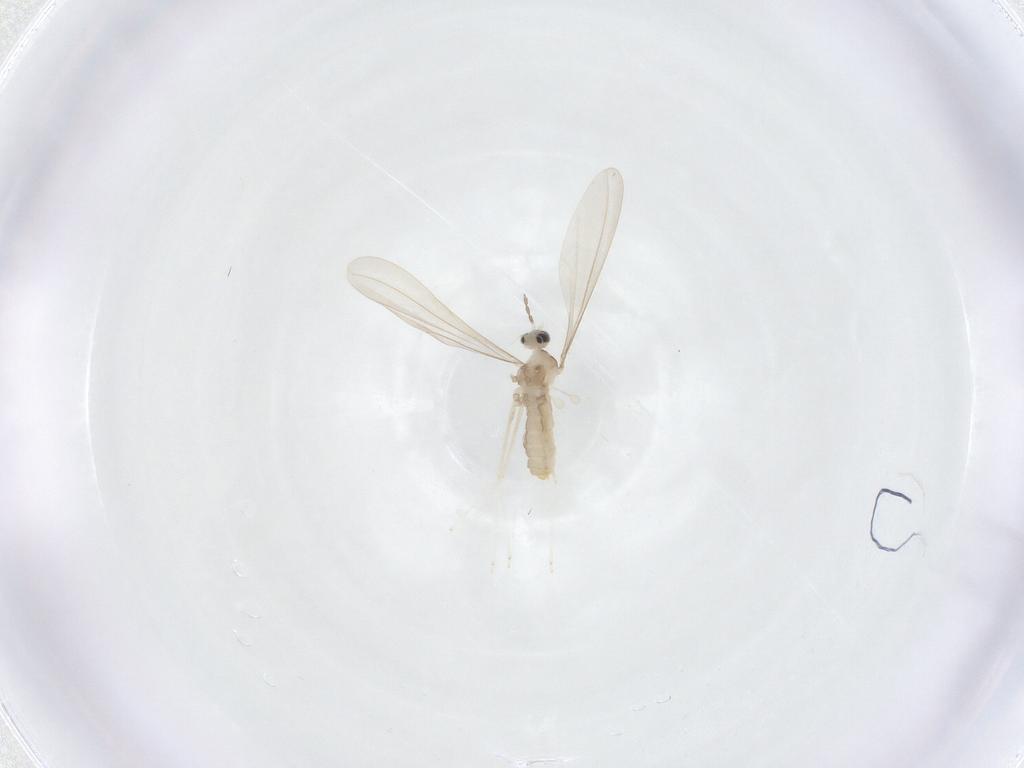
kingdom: Animalia
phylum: Arthropoda
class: Insecta
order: Diptera
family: Cecidomyiidae
